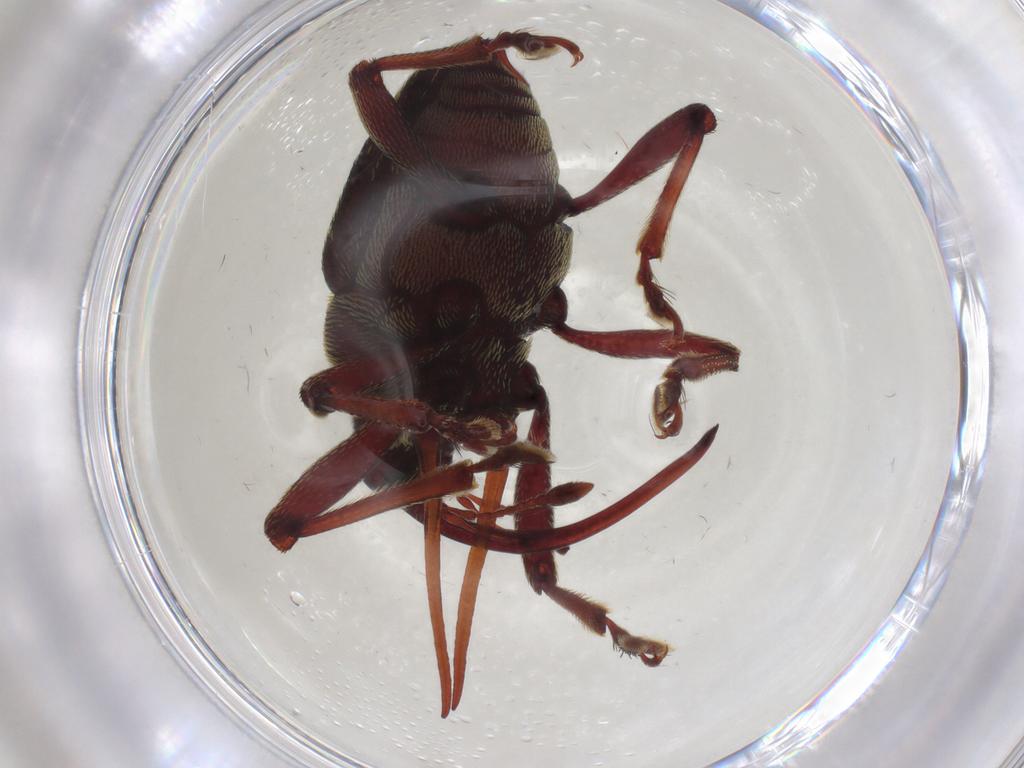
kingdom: Animalia
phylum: Arthropoda
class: Insecta
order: Coleoptera
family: Curculionidae
